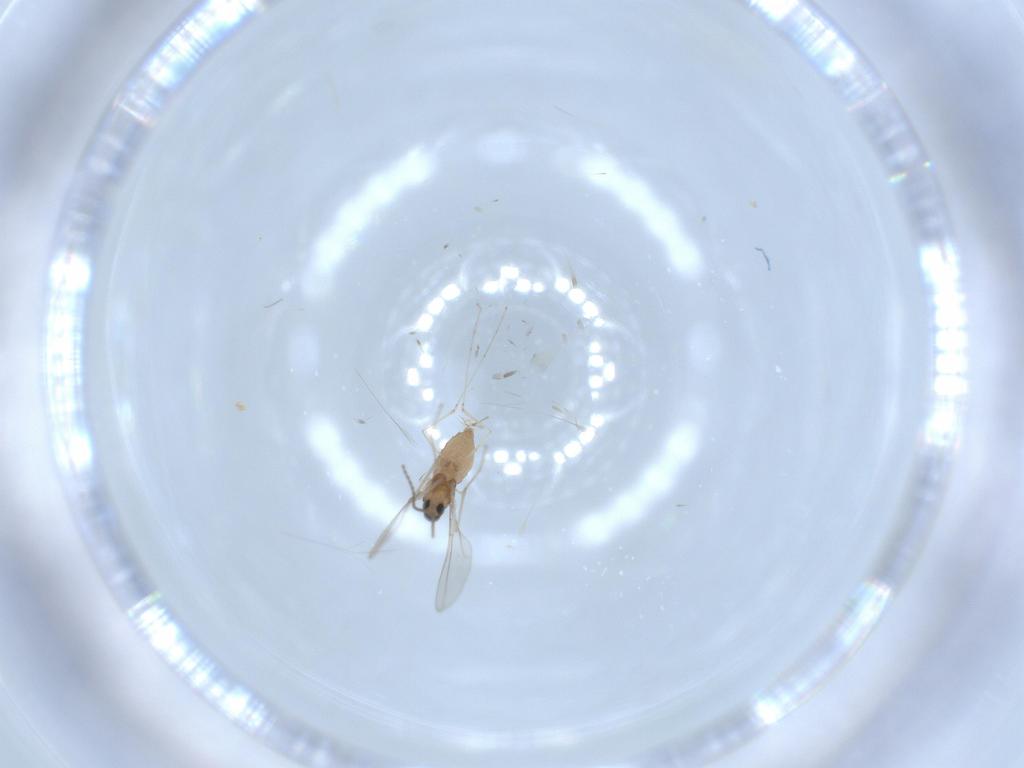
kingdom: Animalia
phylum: Arthropoda
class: Insecta
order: Diptera
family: Cecidomyiidae
